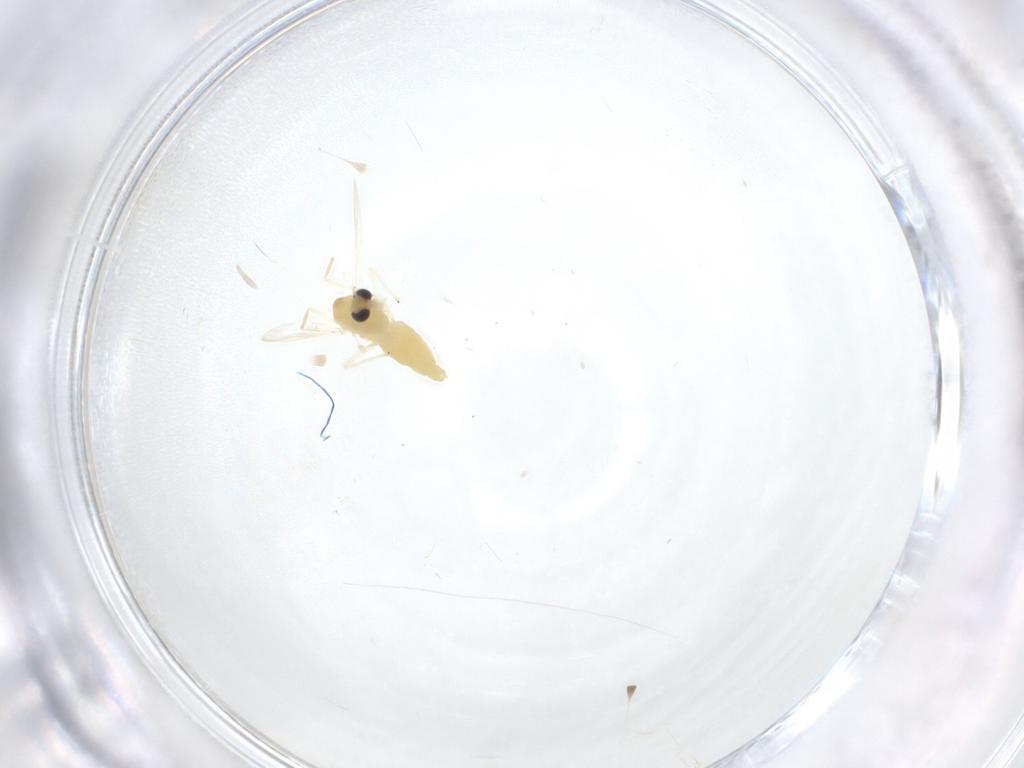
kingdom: Animalia
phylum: Arthropoda
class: Insecta
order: Diptera
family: Chironomidae
